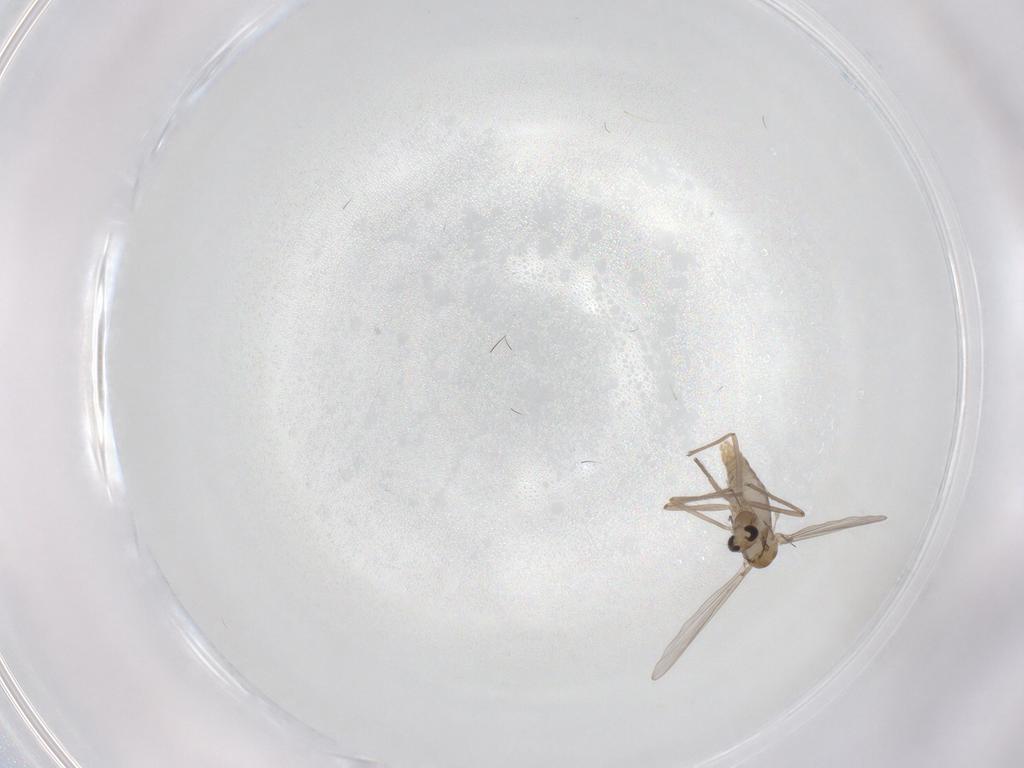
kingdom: Animalia
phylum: Arthropoda
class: Insecta
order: Diptera
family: Chironomidae
